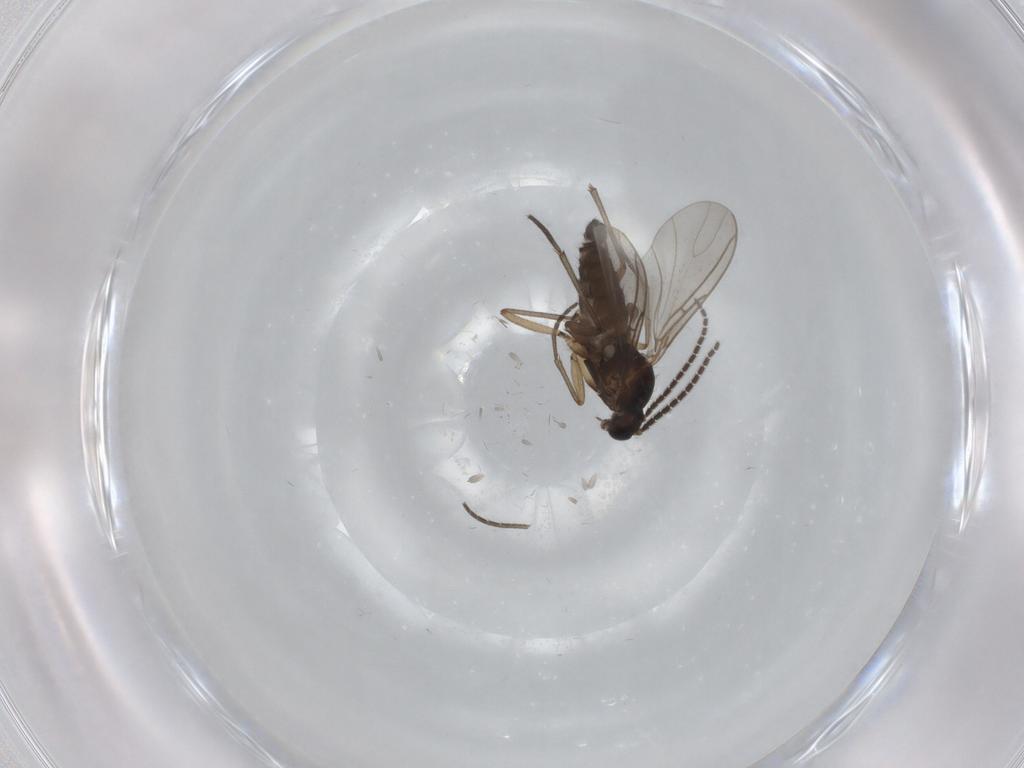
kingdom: Animalia
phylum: Arthropoda
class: Insecta
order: Diptera
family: Sciaridae
